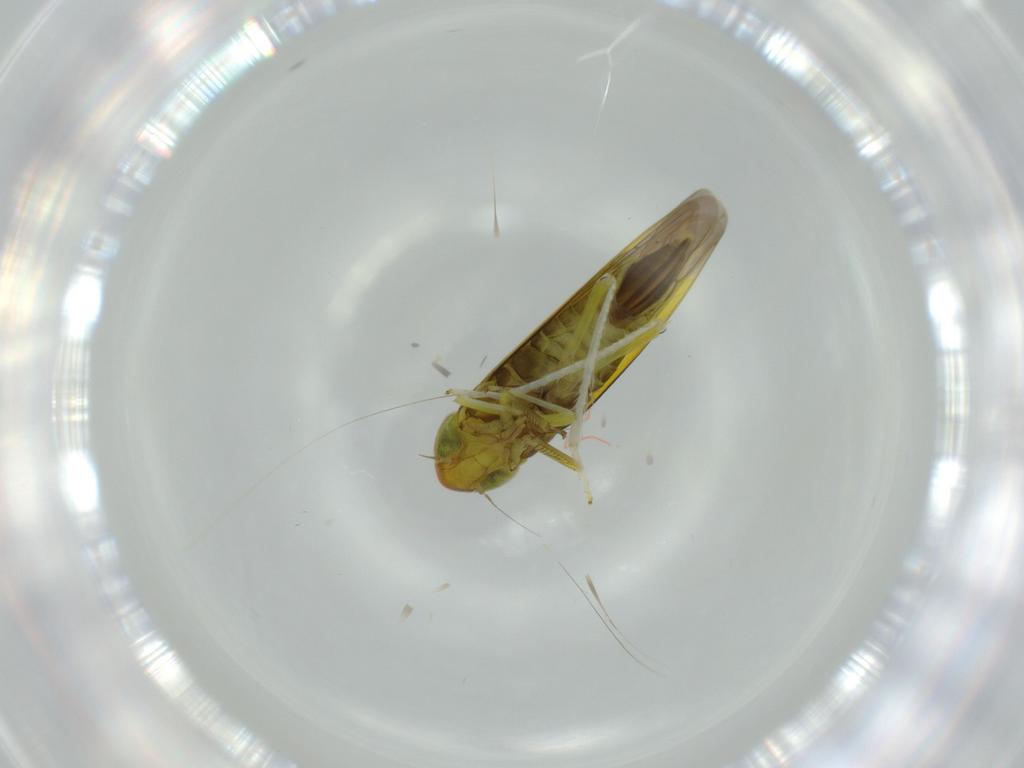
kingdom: Animalia
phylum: Arthropoda
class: Insecta
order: Hemiptera
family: Cicadellidae
